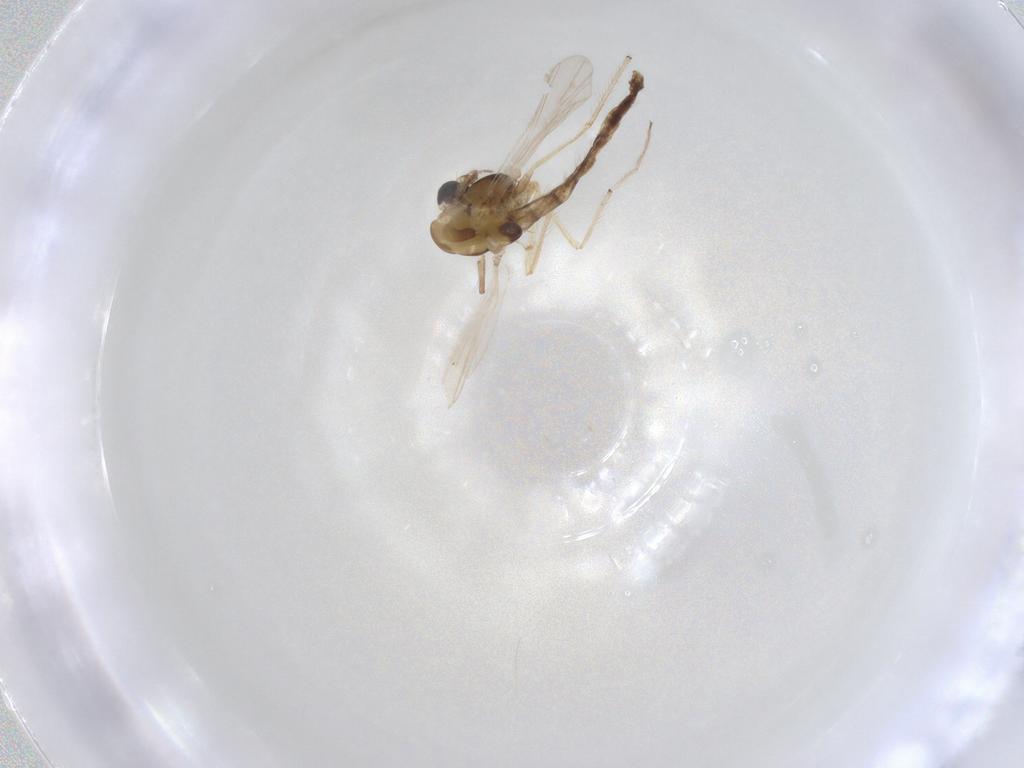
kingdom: Animalia
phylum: Arthropoda
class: Insecta
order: Diptera
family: Chironomidae
